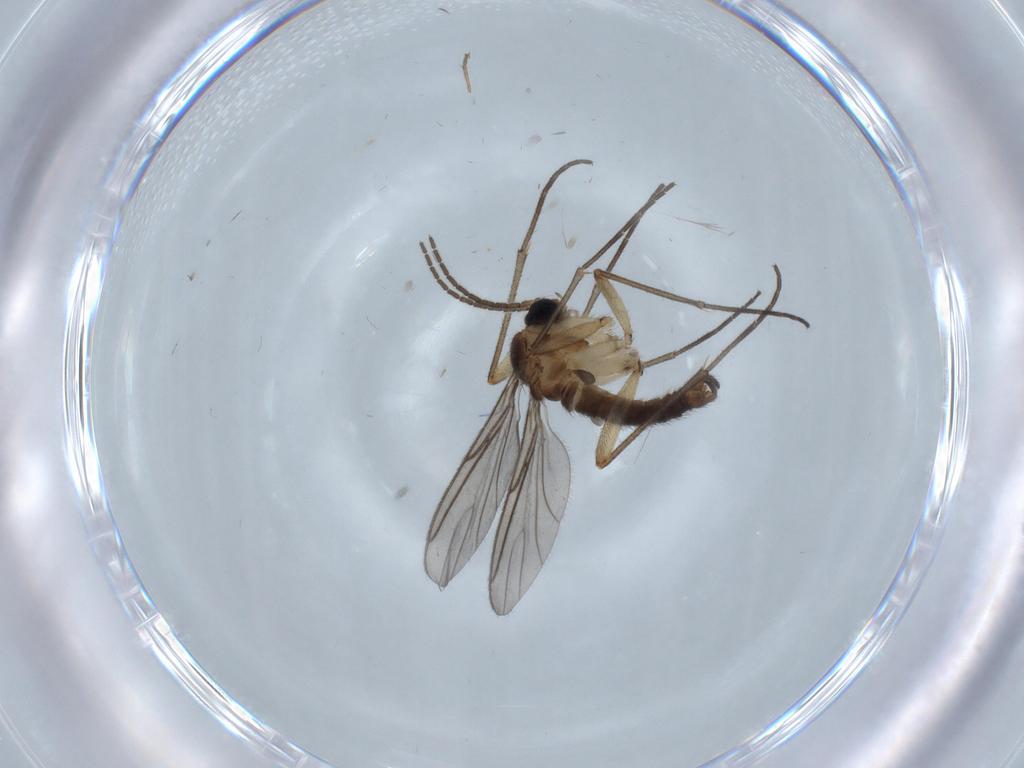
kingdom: Animalia
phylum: Arthropoda
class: Insecta
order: Diptera
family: Sciaridae
